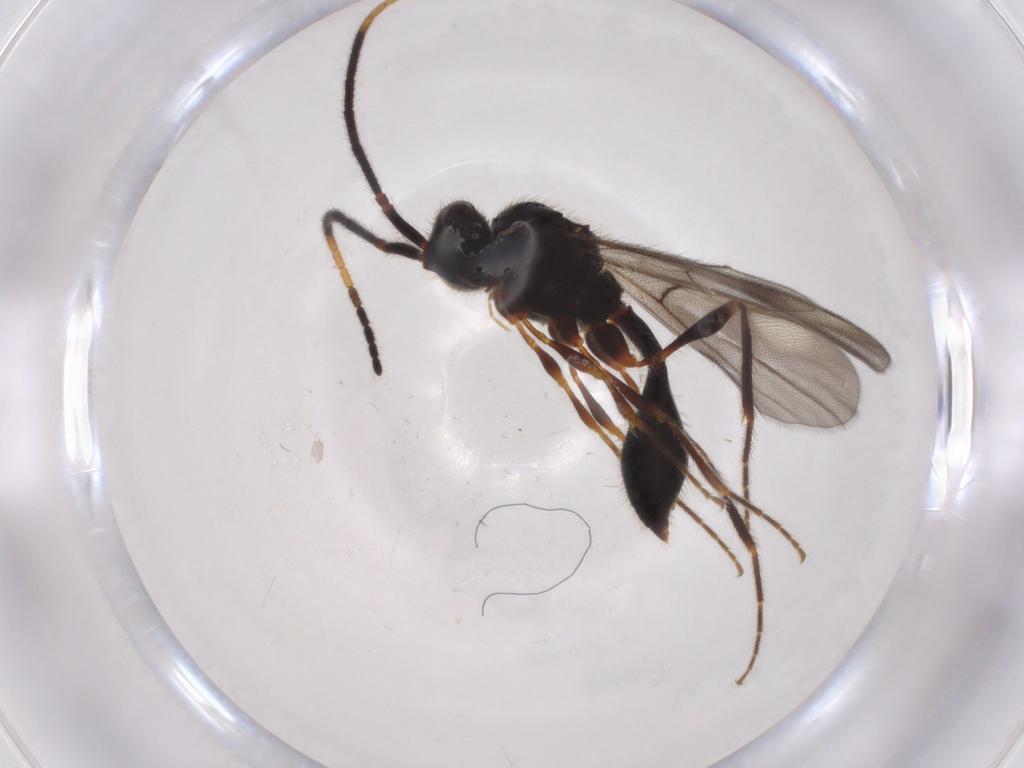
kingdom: Animalia
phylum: Arthropoda
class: Insecta
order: Hymenoptera
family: Diapriidae
